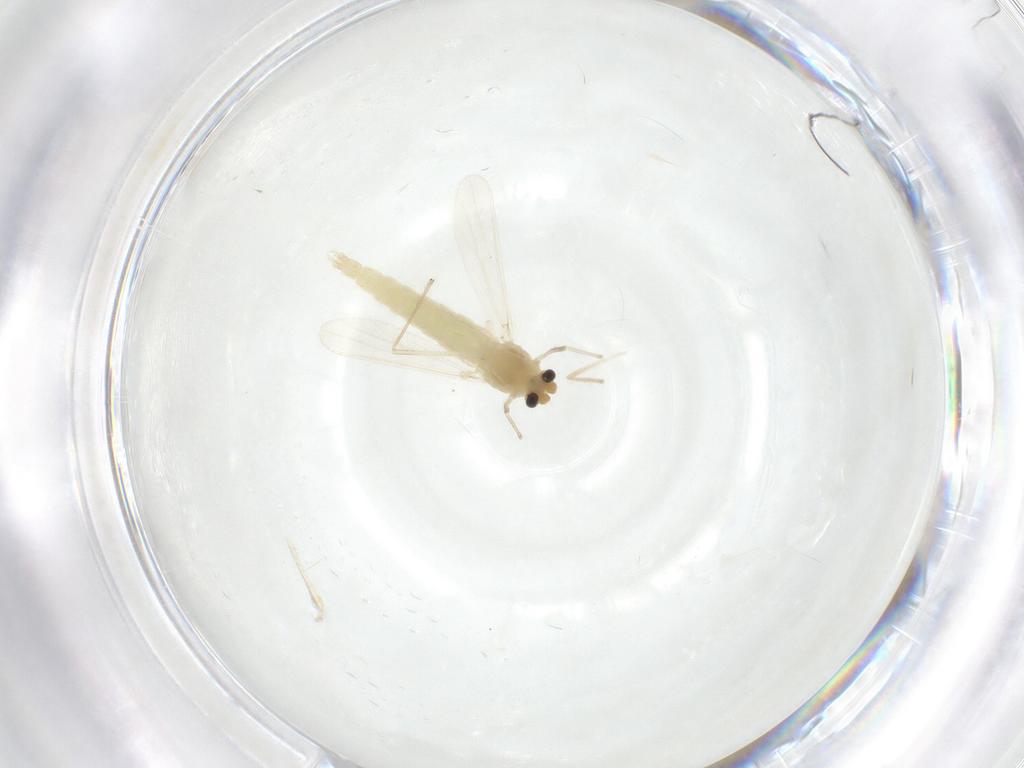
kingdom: Animalia
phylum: Arthropoda
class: Insecta
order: Diptera
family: Chironomidae
